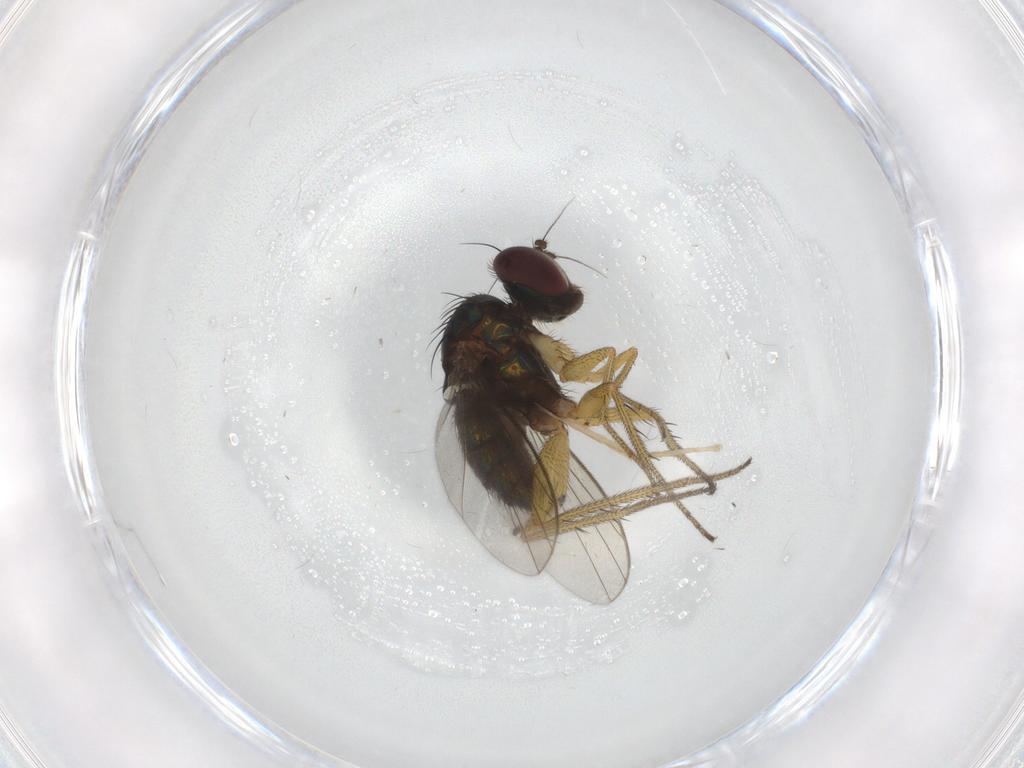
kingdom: Animalia
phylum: Arthropoda
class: Insecta
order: Diptera
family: Dolichopodidae
